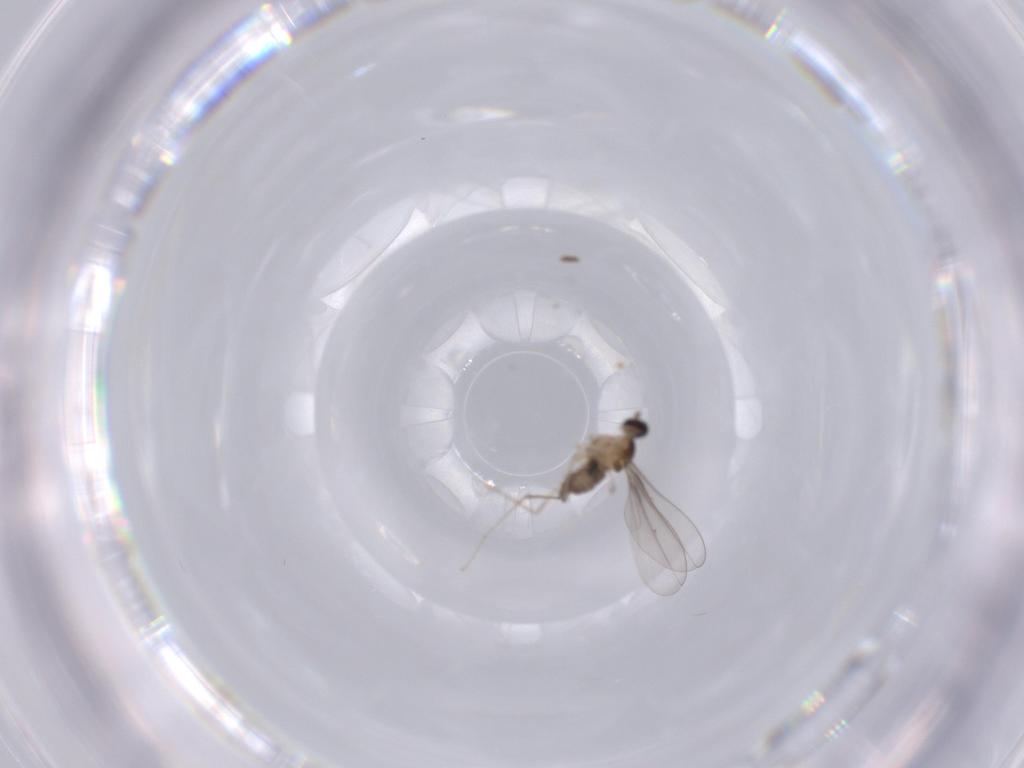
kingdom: Animalia
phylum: Arthropoda
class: Insecta
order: Diptera
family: Cecidomyiidae
